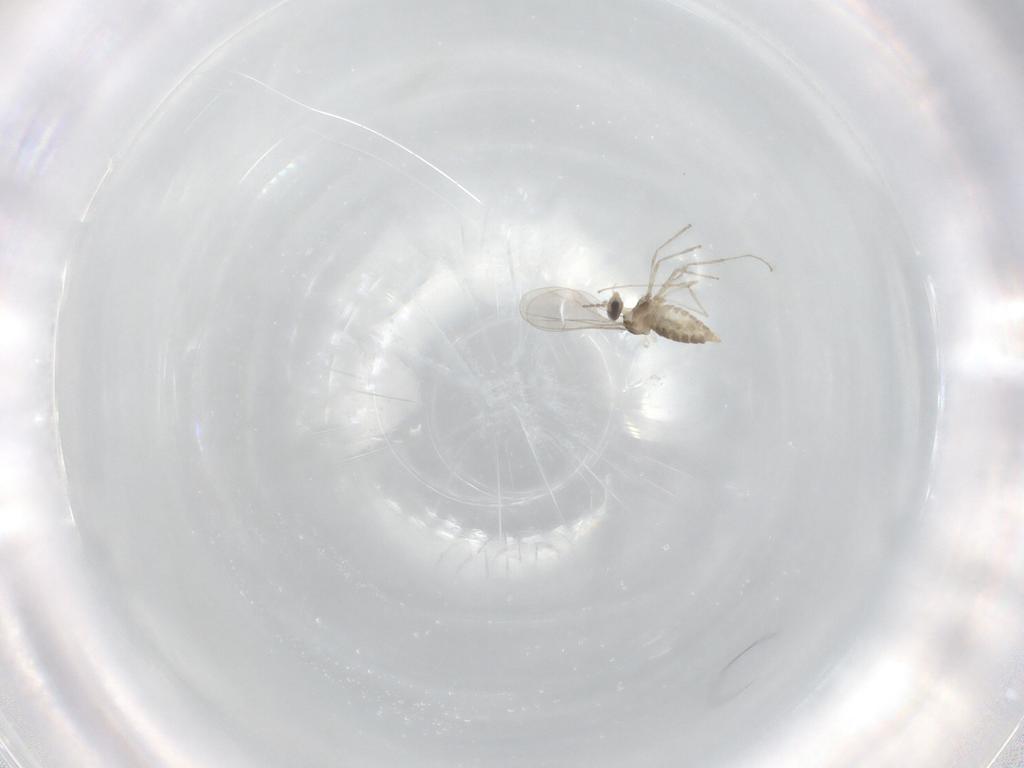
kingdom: Animalia
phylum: Arthropoda
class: Insecta
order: Diptera
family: Cecidomyiidae
